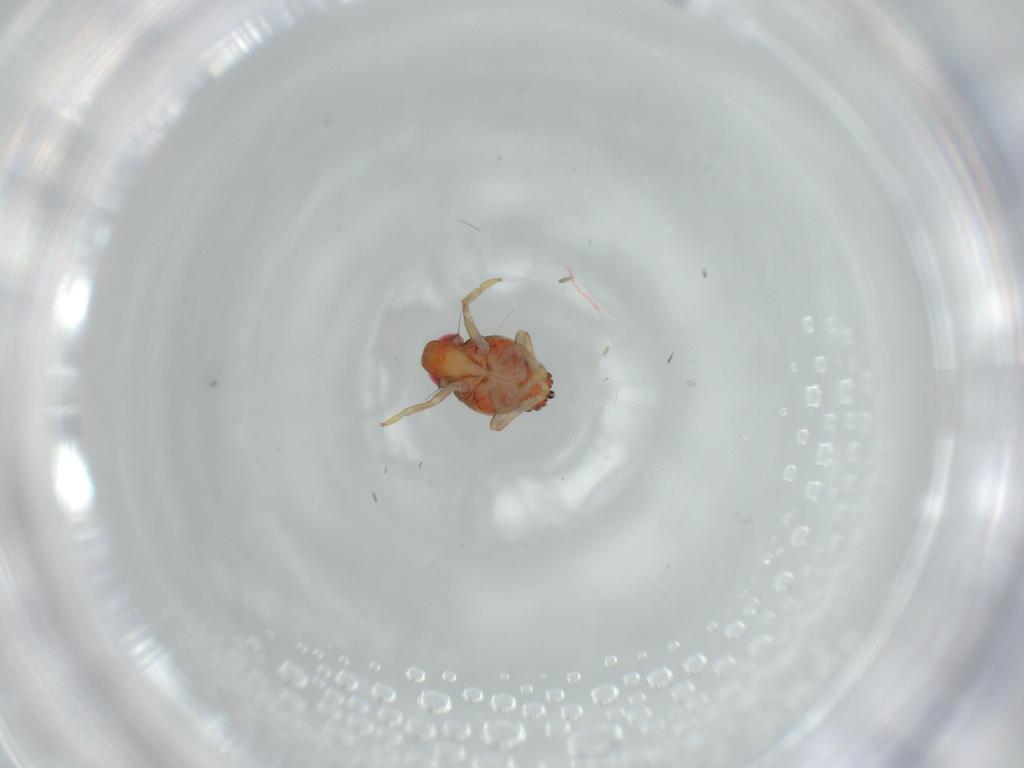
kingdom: Animalia
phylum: Arthropoda
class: Insecta
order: Hemiptera
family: Issidae
